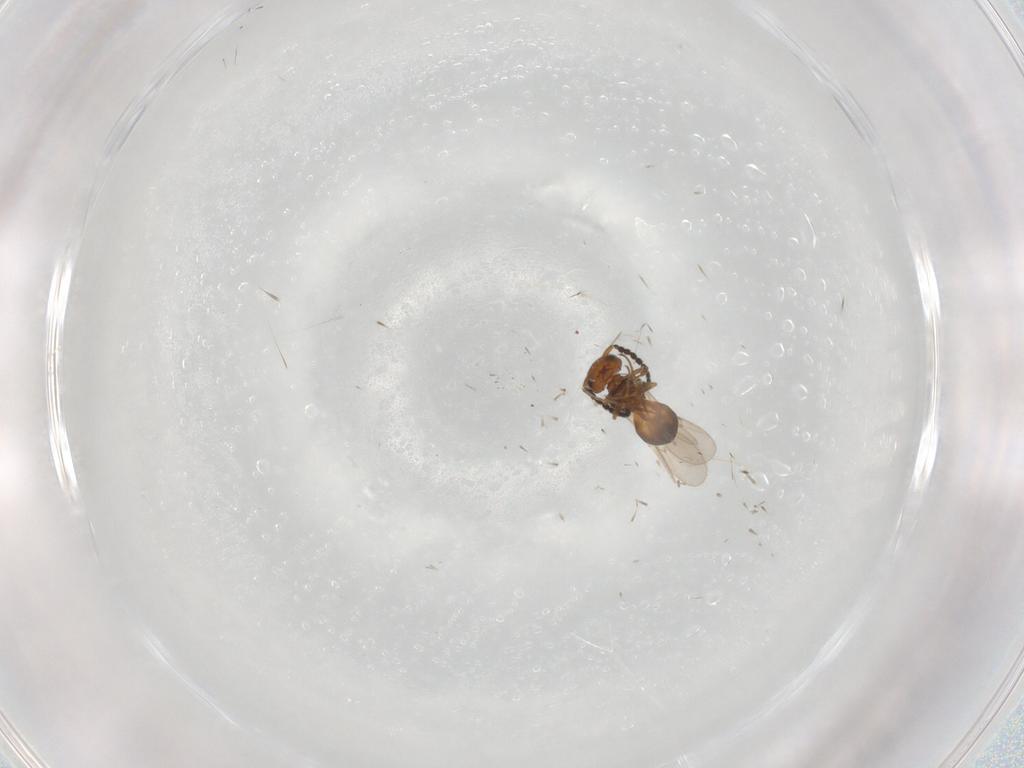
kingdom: Animalia
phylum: Arthropoda
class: Insecta
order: Hymenoptera
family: Scelionidae
